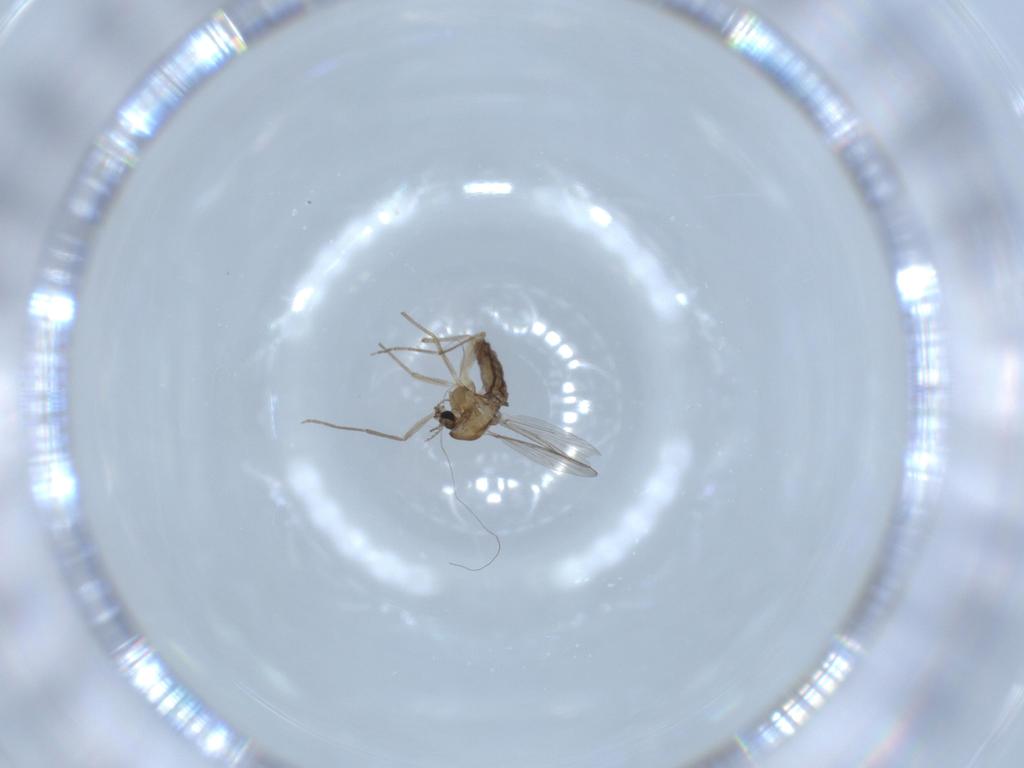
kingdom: Animalia
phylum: Arthropoda
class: Insecta
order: Diptera
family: Chironomidae
